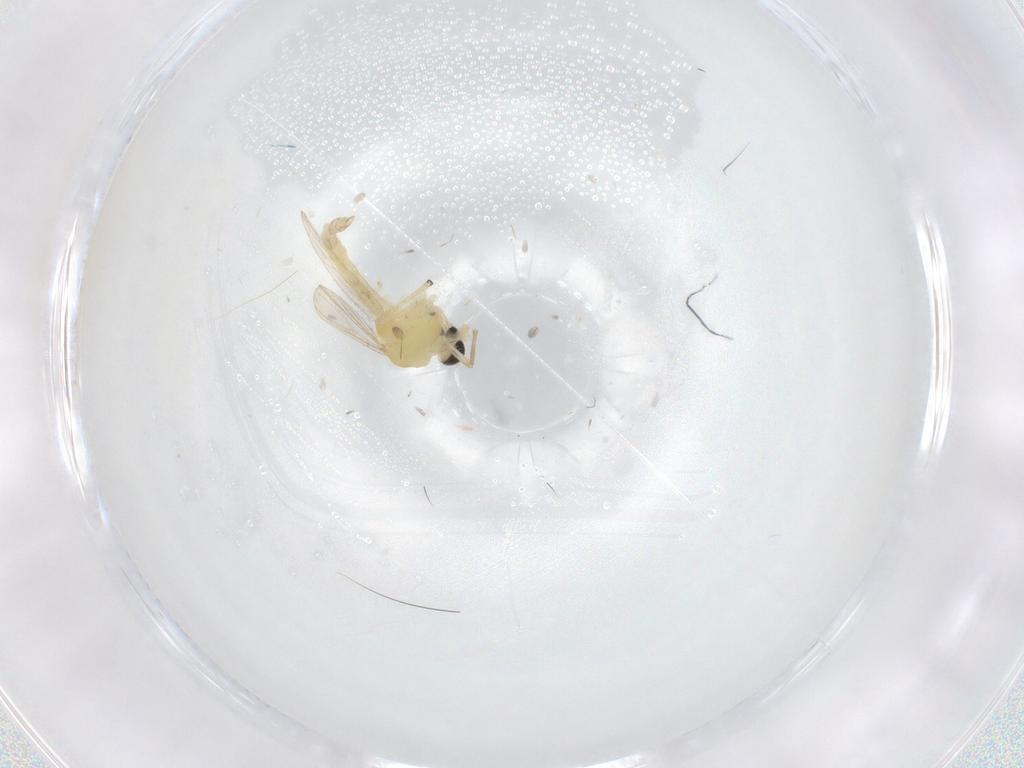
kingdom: Animalia
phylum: Arthropoda
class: Insecta
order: Diptera
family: Chironomidae
